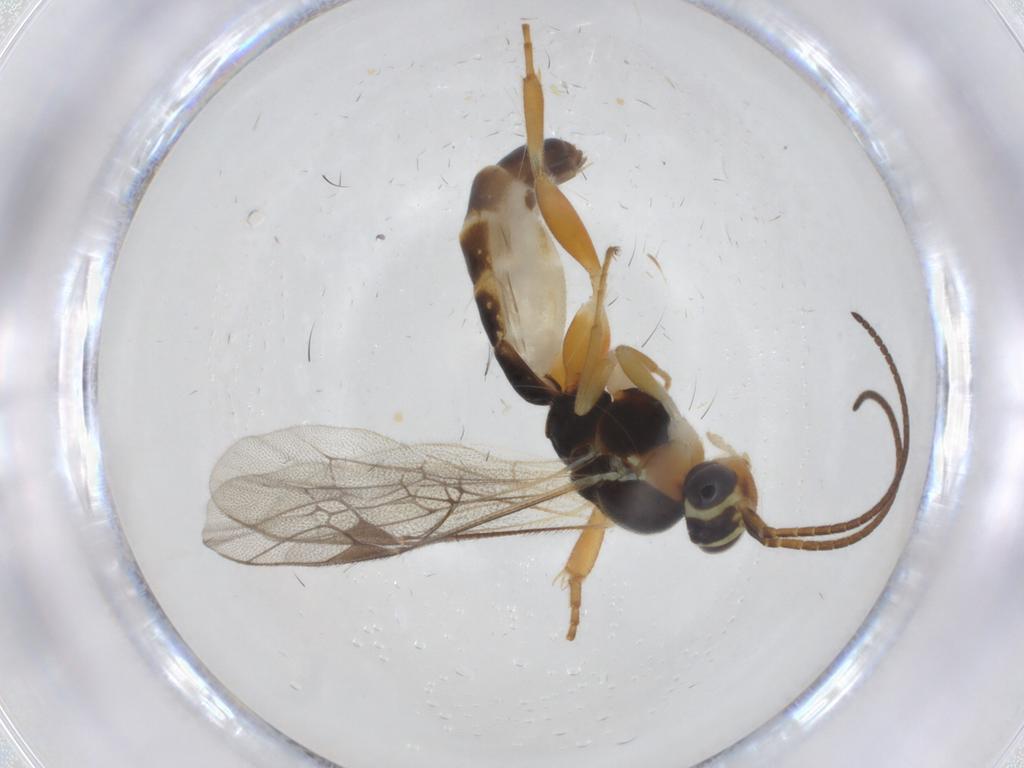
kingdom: Animalia
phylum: Arthropoda
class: Insecta
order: Hymenoptera
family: Ichneumonidae
